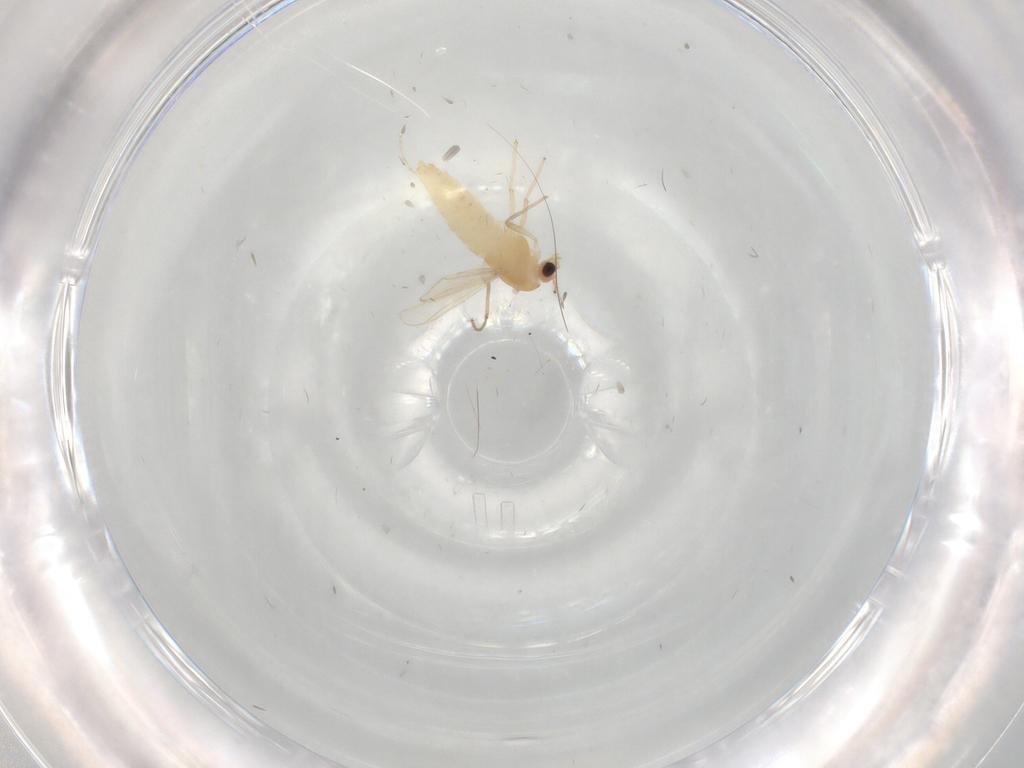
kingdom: Animalia
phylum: Arthropoda
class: Insecta
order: Diptera
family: Chironomidae
